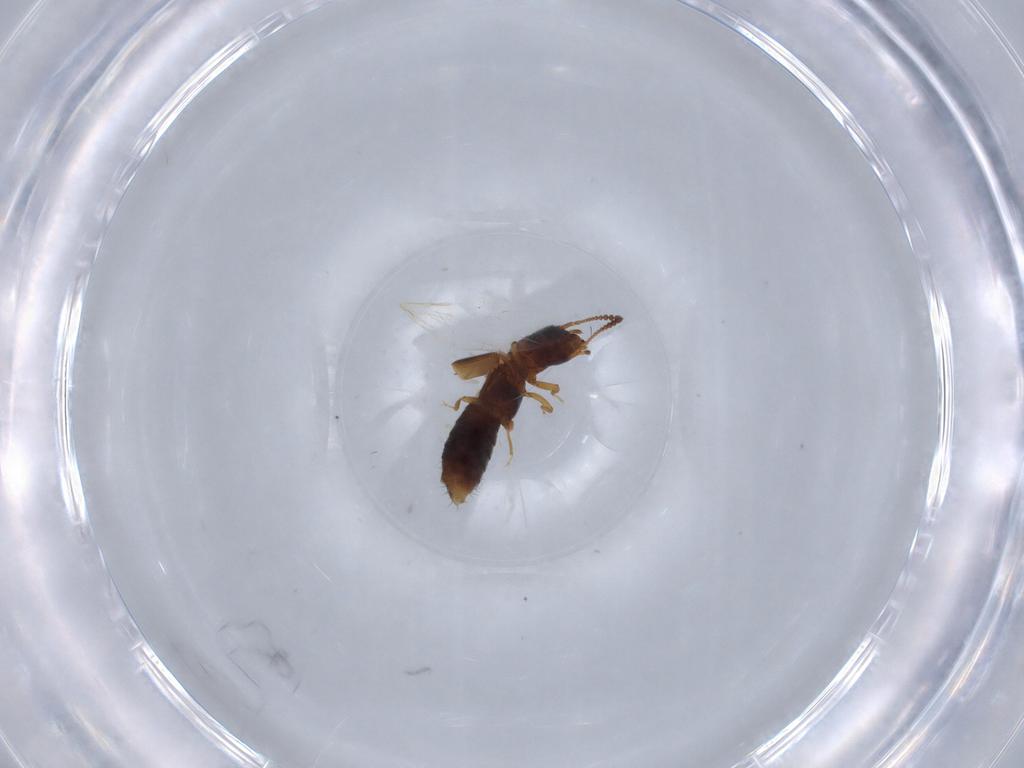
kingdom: Animalia
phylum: Arthropoda
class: Insecta
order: Coleoptera
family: Staphylinidae
